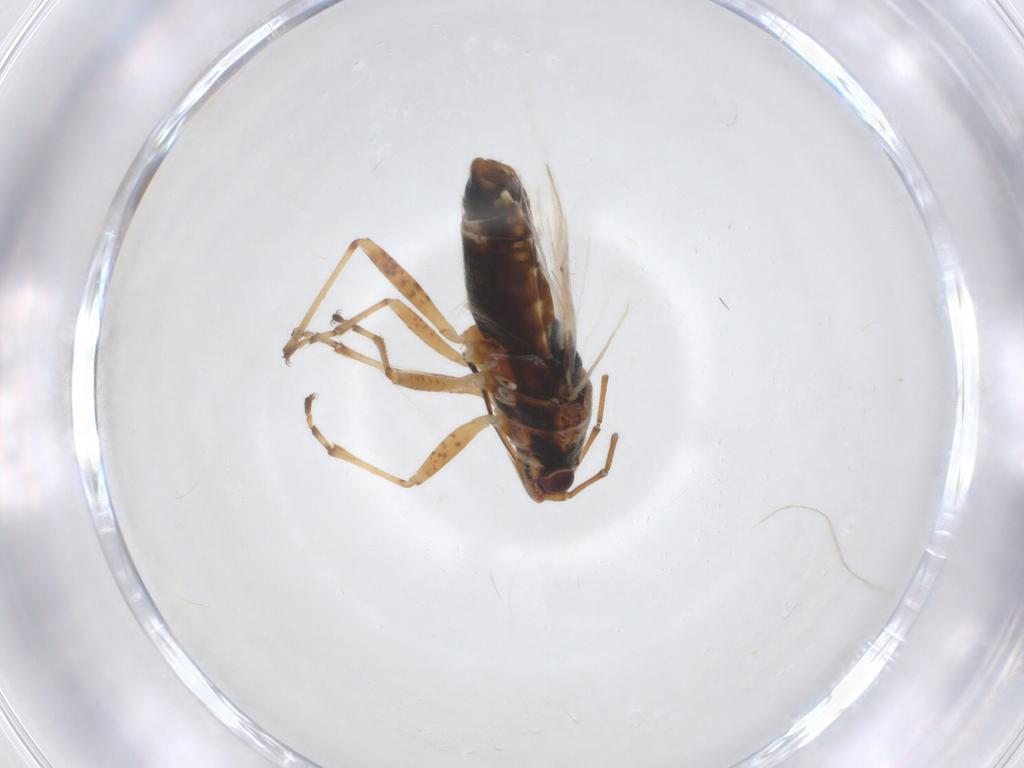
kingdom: Animalia
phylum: Arthropoda
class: Insecta
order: Hemiptera
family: Lygaeidae
